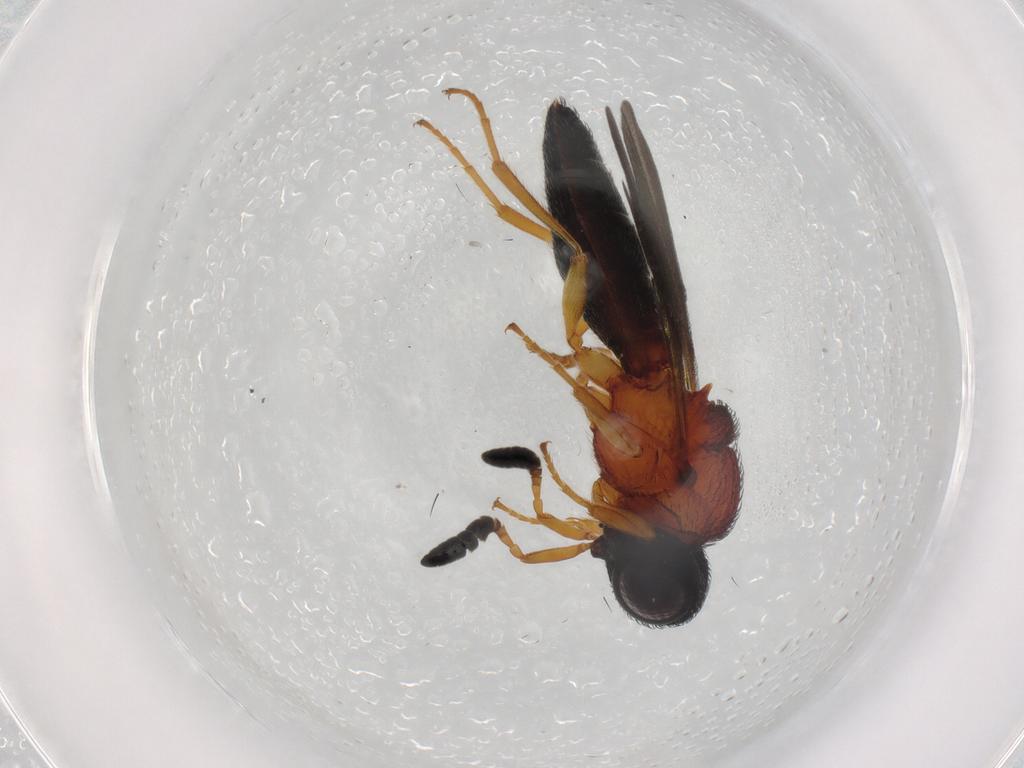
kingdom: Animalia
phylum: Arthropoda
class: Insecta
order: Hymenoptera
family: Scelionidae
